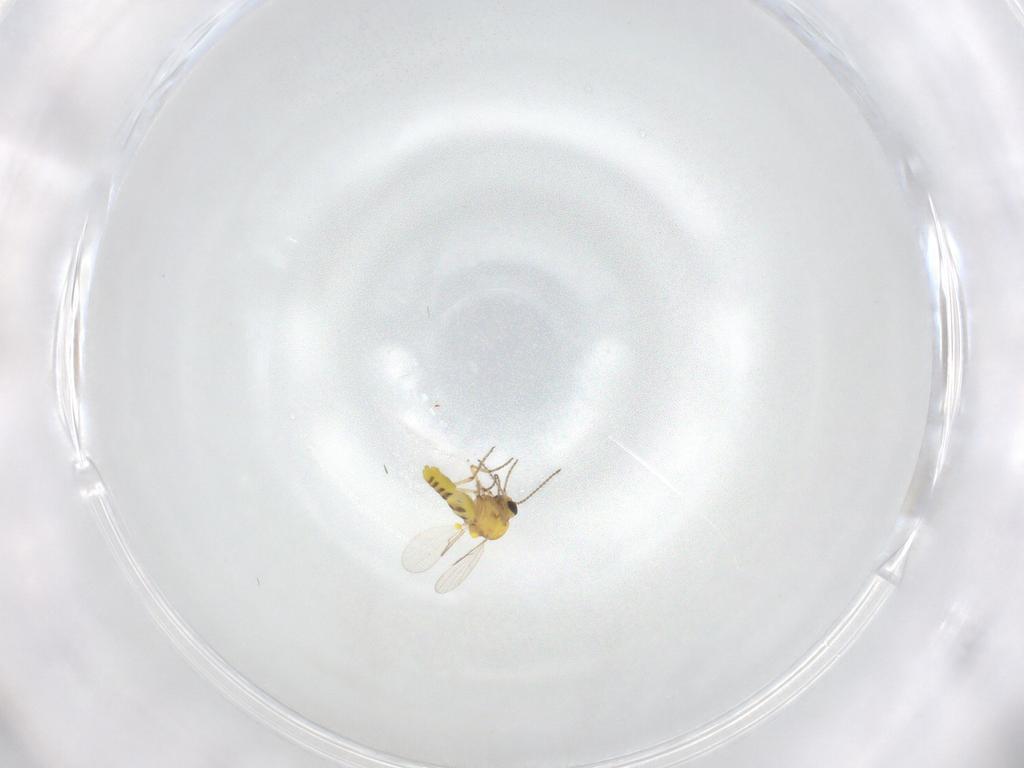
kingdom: Animalia
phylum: Arthropoda
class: Insecta
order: Diptera
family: Ceratopogonidae
